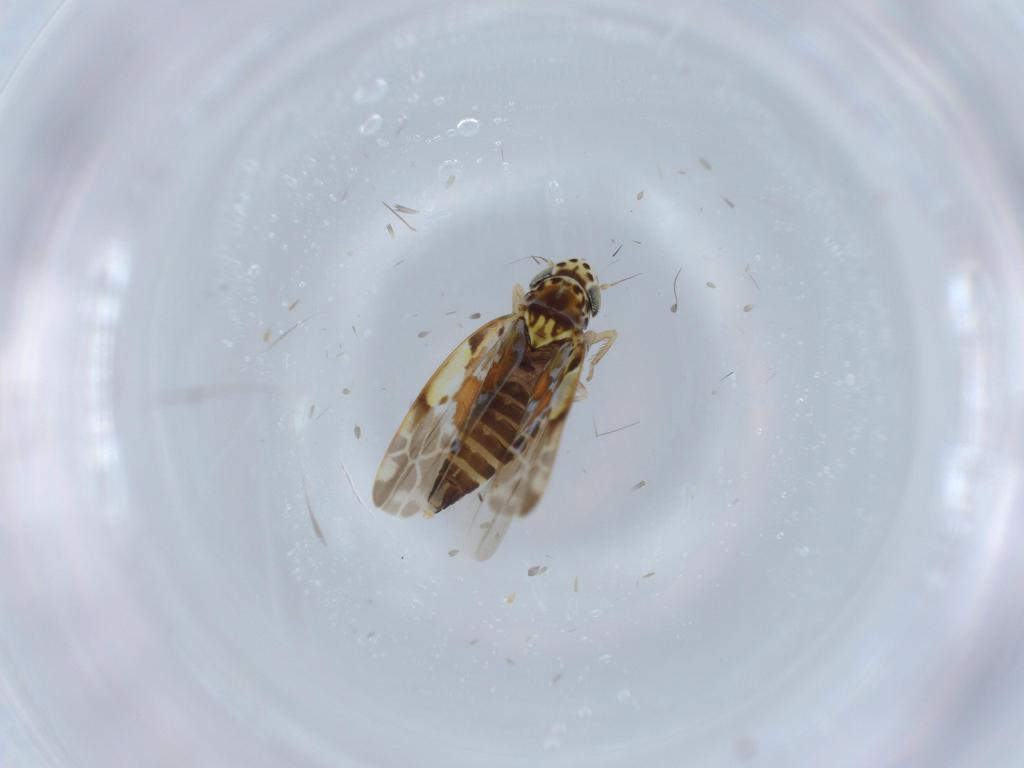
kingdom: Animalia
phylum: Arthropoda
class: Insecta
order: Hemiptera
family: Cicadellidae
